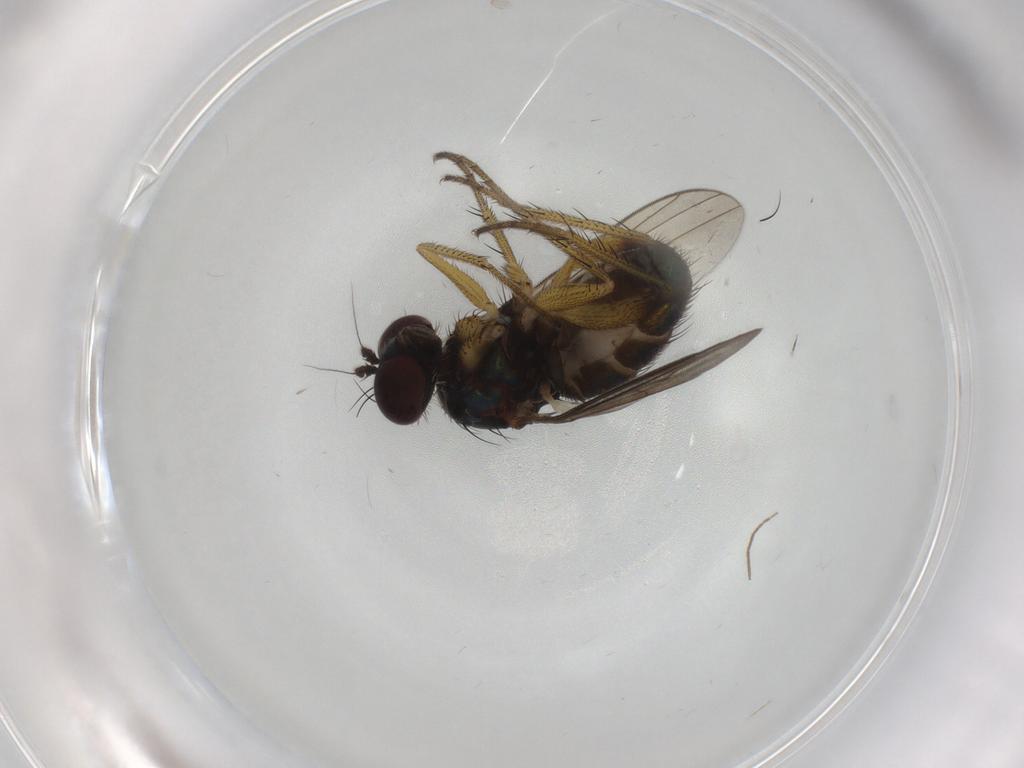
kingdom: Animalia
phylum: Arthropoda
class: Insecta
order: Diptera
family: Dolichopodidae
